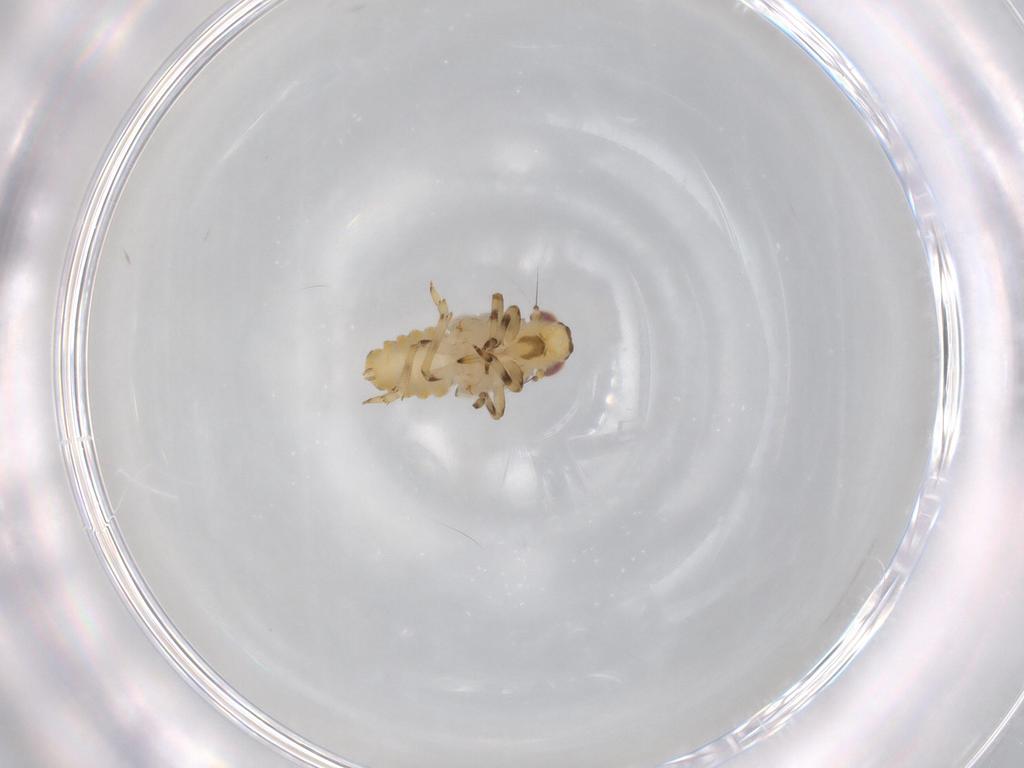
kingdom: Animalia
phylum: Arthropoda
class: Insecta
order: Hemiptera
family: Issidae
